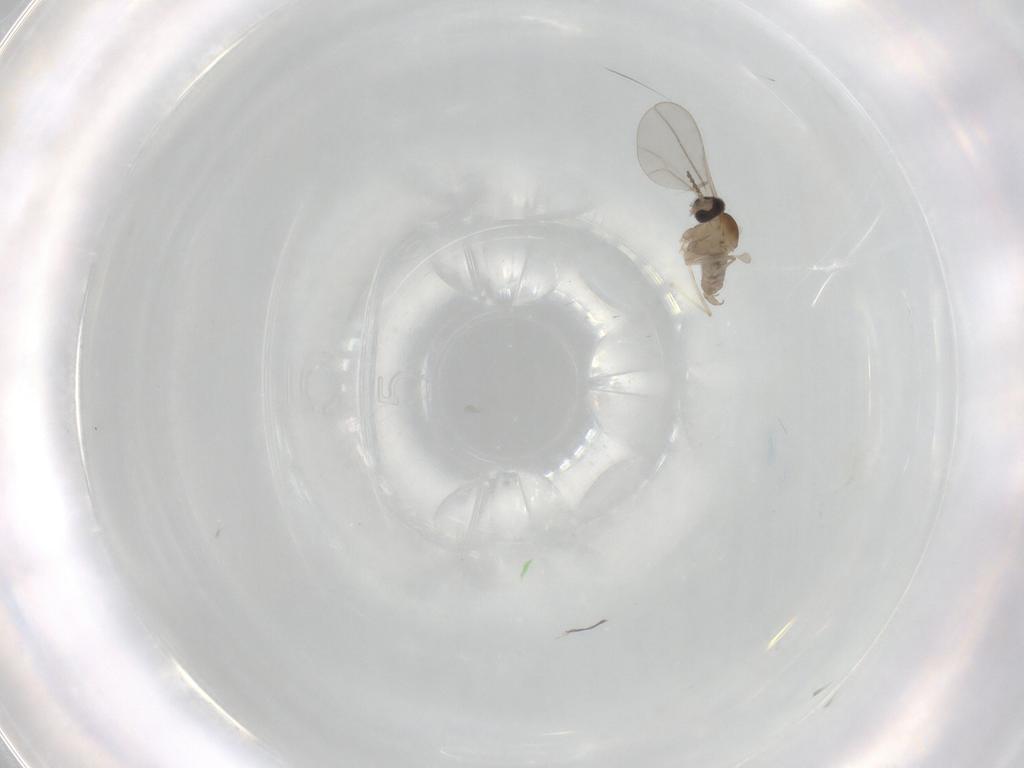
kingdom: Animalia
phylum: Arthropoda
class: Insecta
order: Diptera
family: Sciaridae
